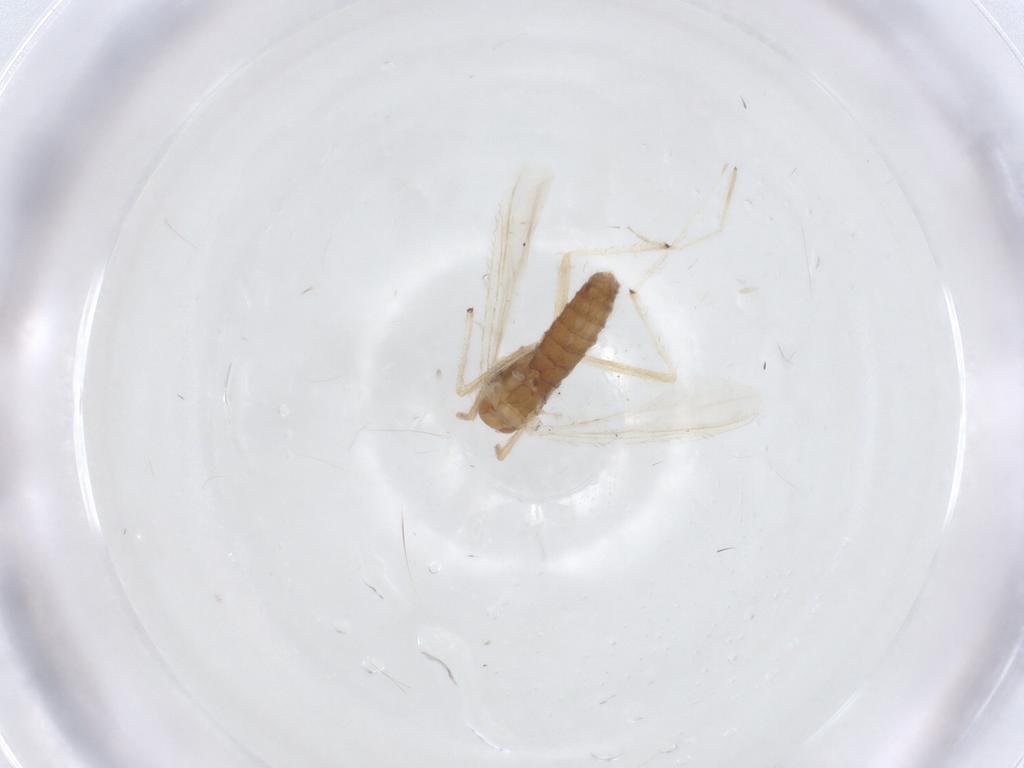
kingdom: Animalia
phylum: Arthropoda
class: Insecta
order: Diptera
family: Chironomidae
